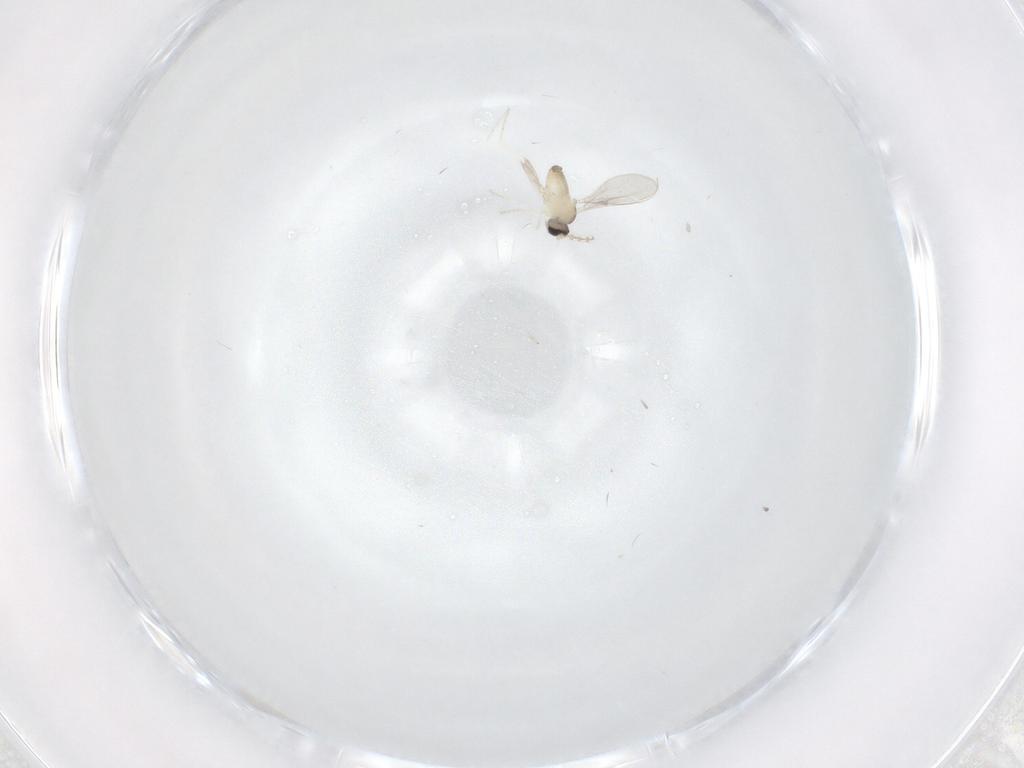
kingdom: Animalia
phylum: Arthropoda
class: Insecta
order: Diptera
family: Cecidomyiidae
